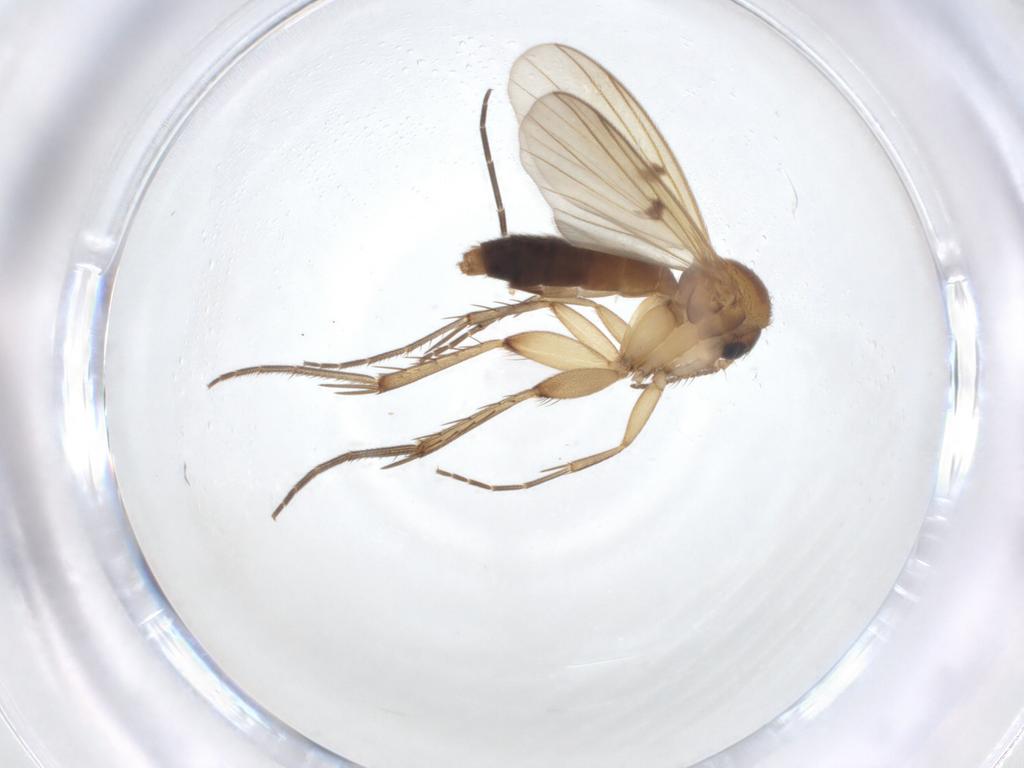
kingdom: Animalia
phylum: Arthropoda
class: Insecta
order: Diptera
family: Mycetophilidae
